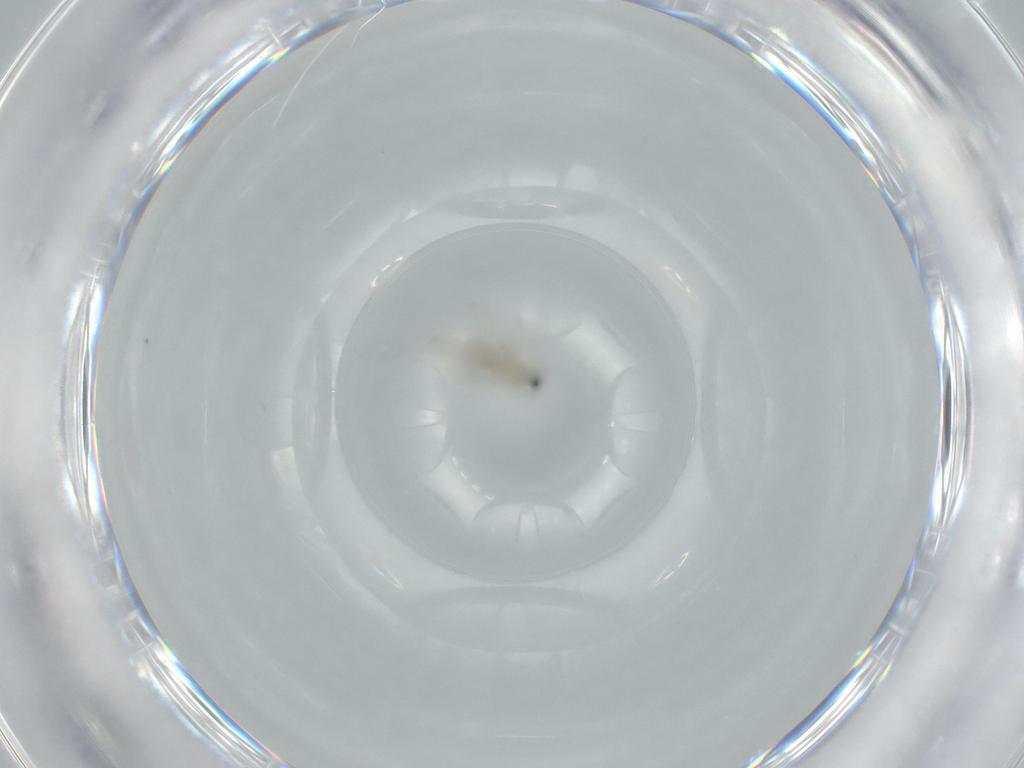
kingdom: Animalia
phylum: Arthropoda
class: Insecta
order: Diptera
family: Cecidomyiidae
